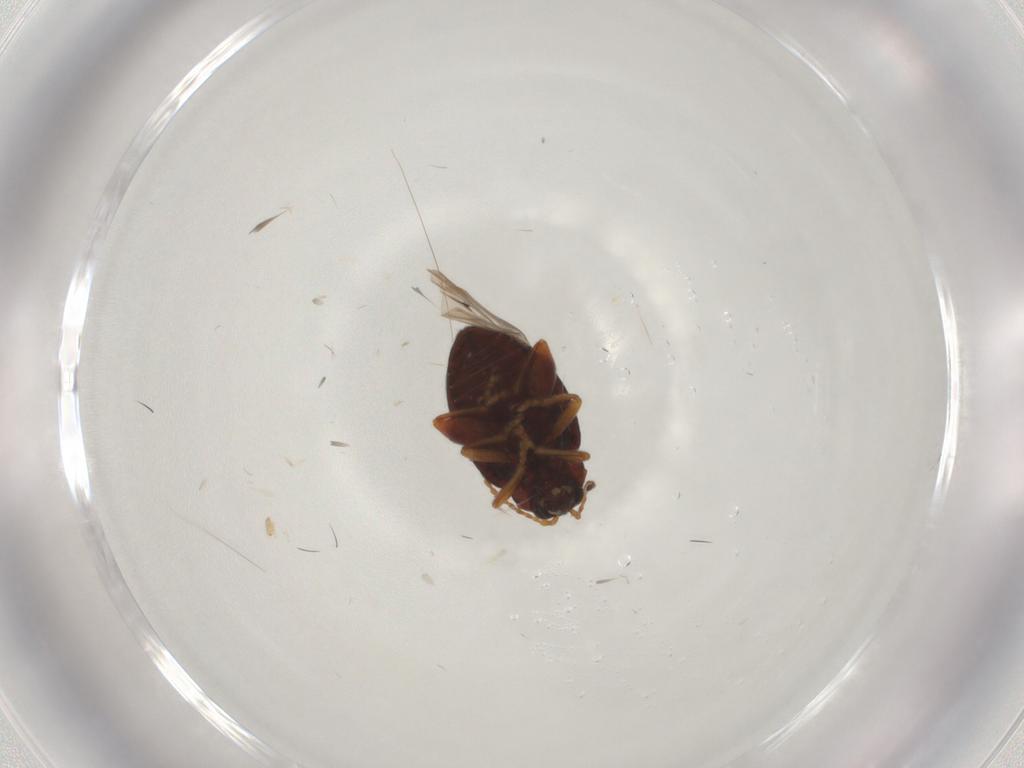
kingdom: Animalia
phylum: Arthropoda
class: Insecta
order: Coleoptera
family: Chrysomelidae
